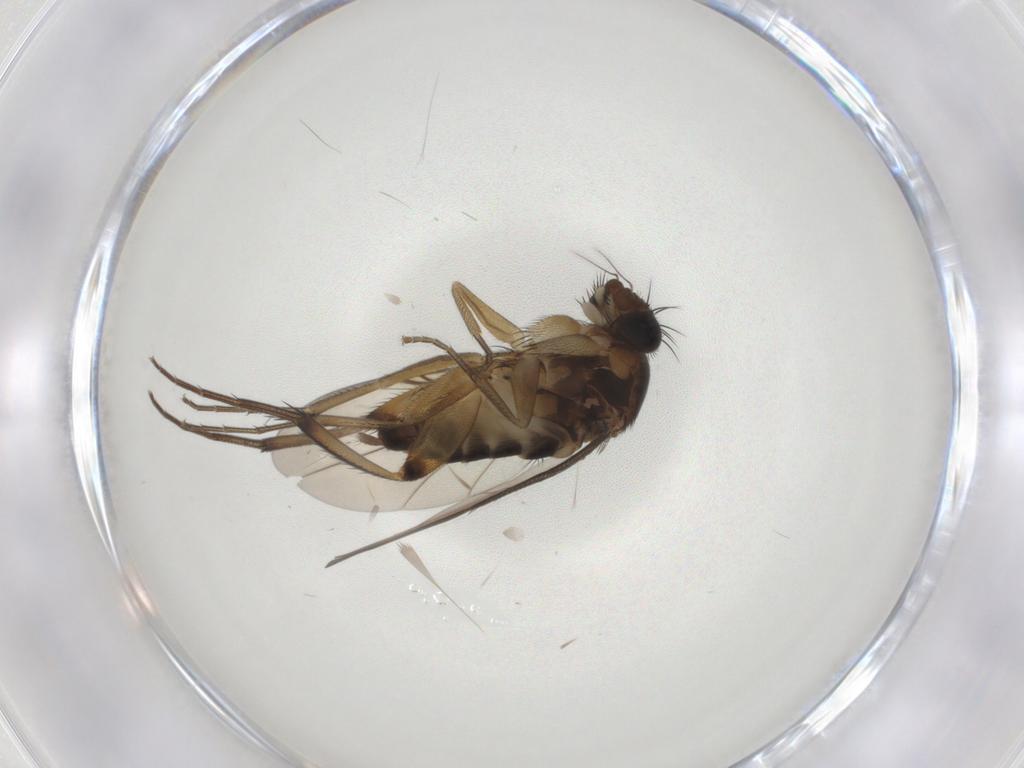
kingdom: Animalia
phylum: Arthropoda
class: Insecta
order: Diptera
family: Phoridae
